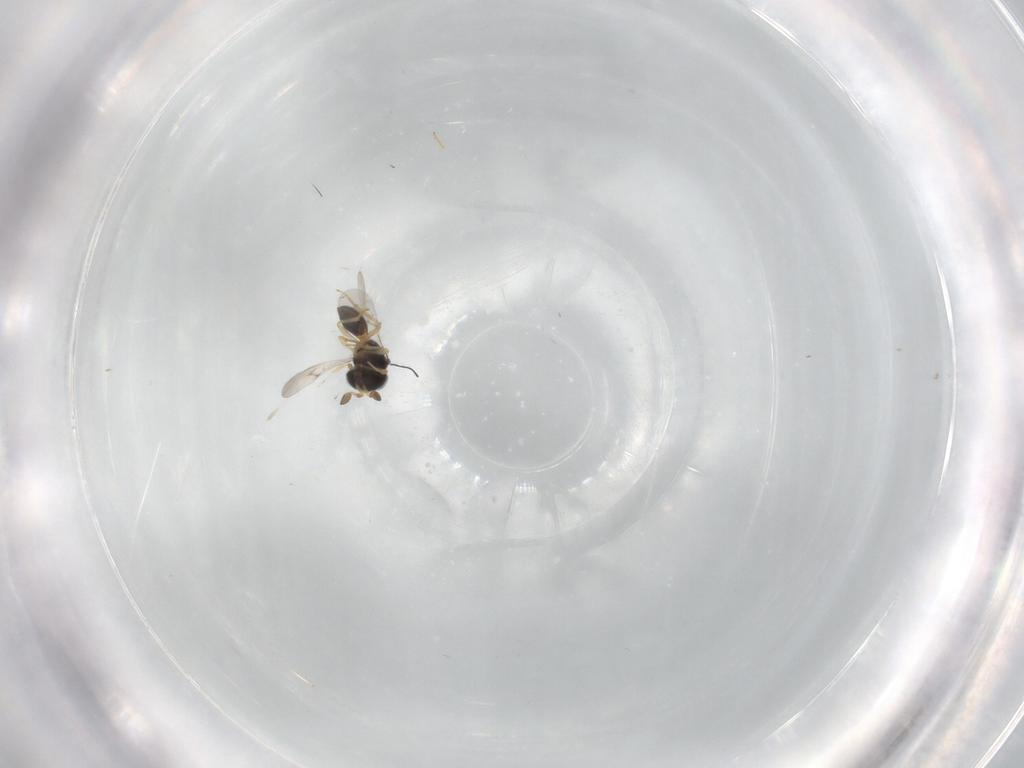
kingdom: Animalia
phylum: Arthropoda
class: Insecta
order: Hymenoptera
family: Scelionidae
